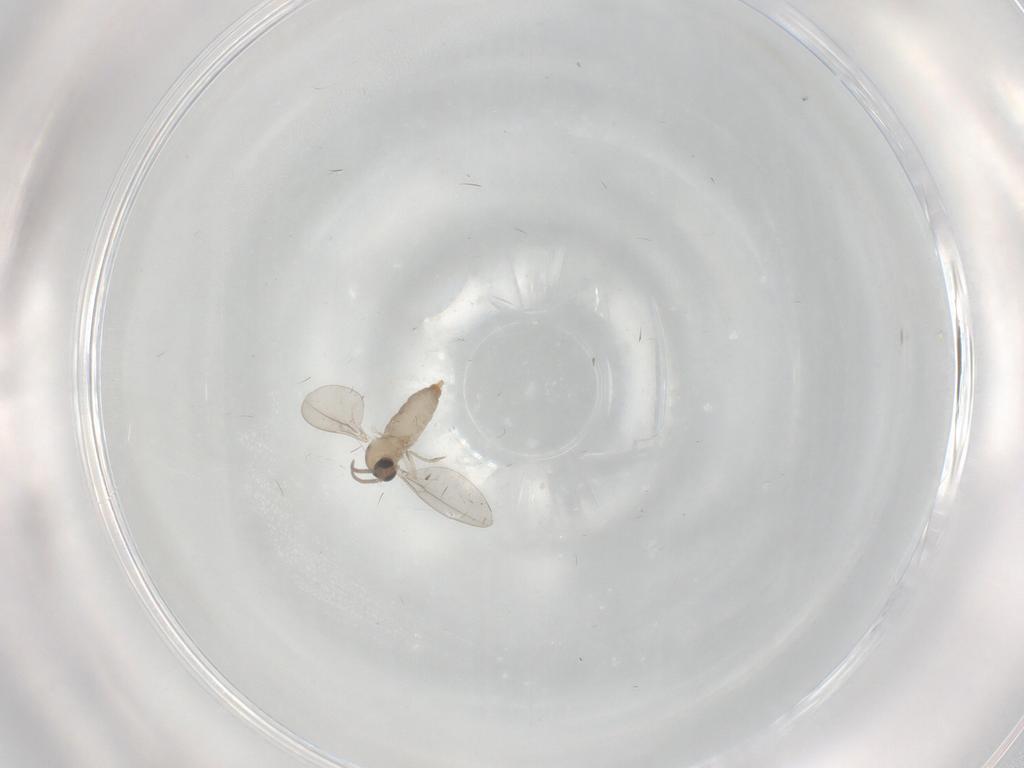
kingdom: Animalia
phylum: Arthropoda
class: Insecta
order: Diptera
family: Cecidomyiidae
